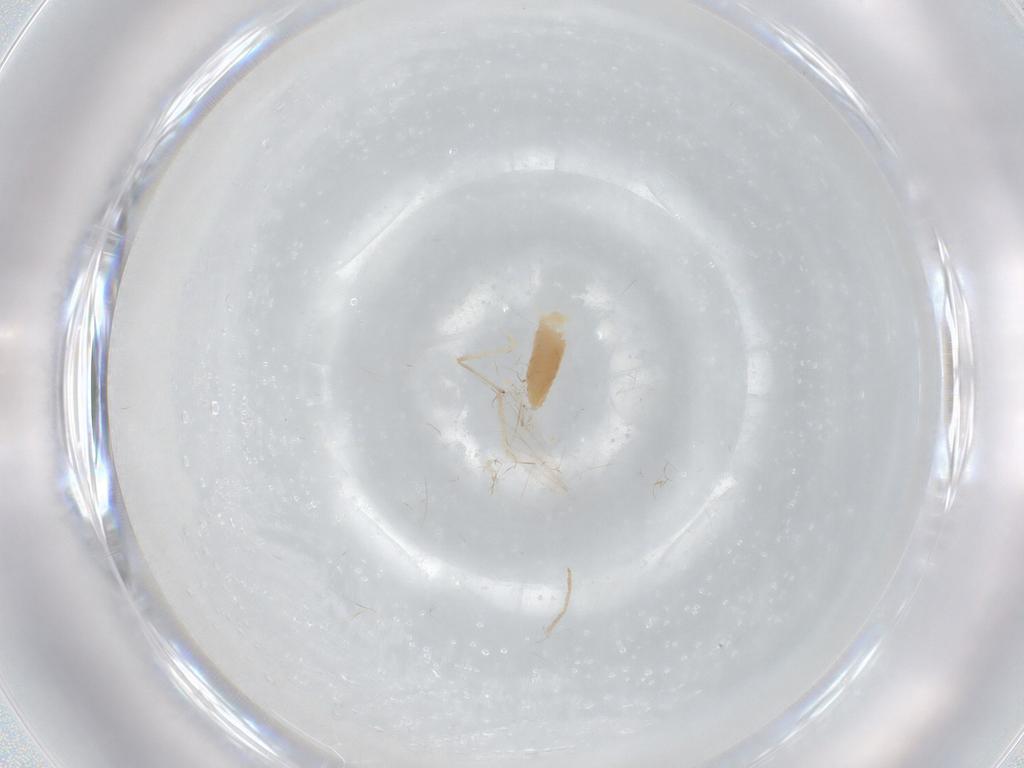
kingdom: Animalia
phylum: Arthropoda
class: Insecta
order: Diptera
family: Chironomidae
